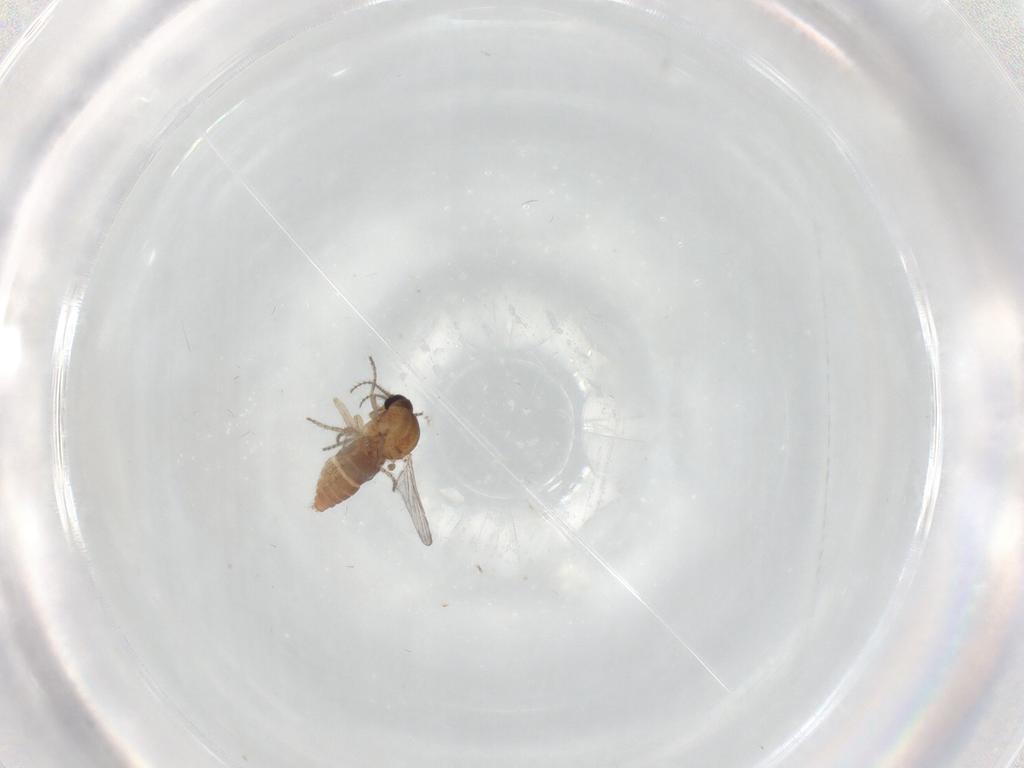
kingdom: Animalia
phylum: Arthropoda
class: Insecta
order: Diptera
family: Ceratopogonidae
